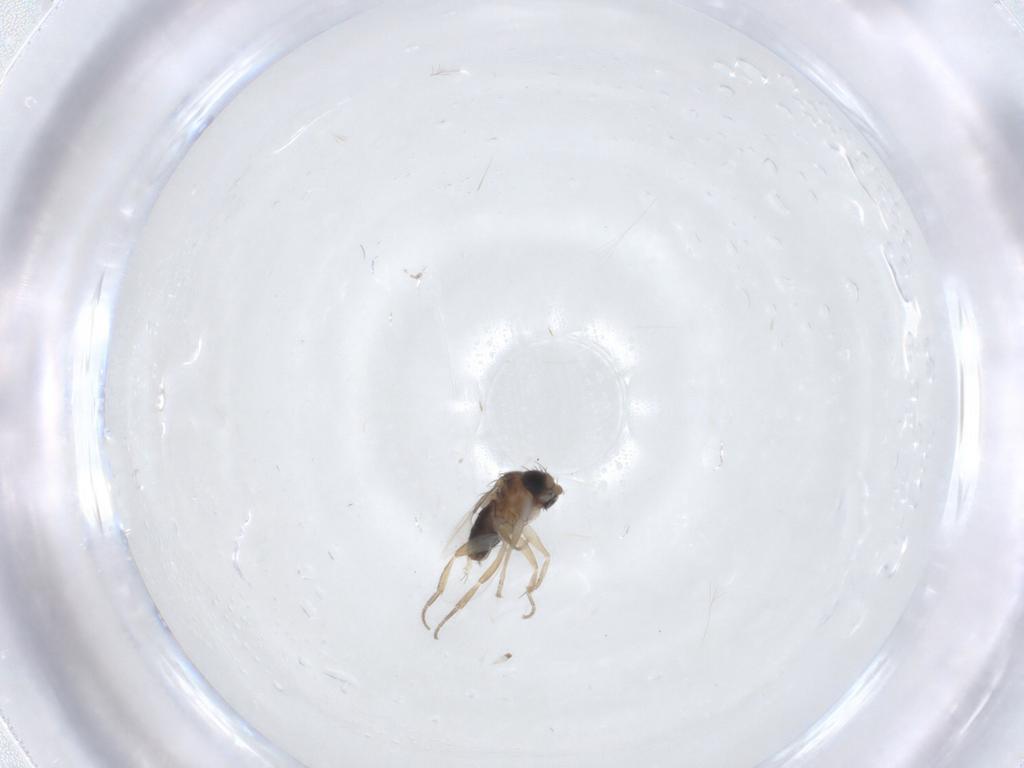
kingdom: Animalia
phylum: Arthropoda
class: Insecta
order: Diptera
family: Phoridae
